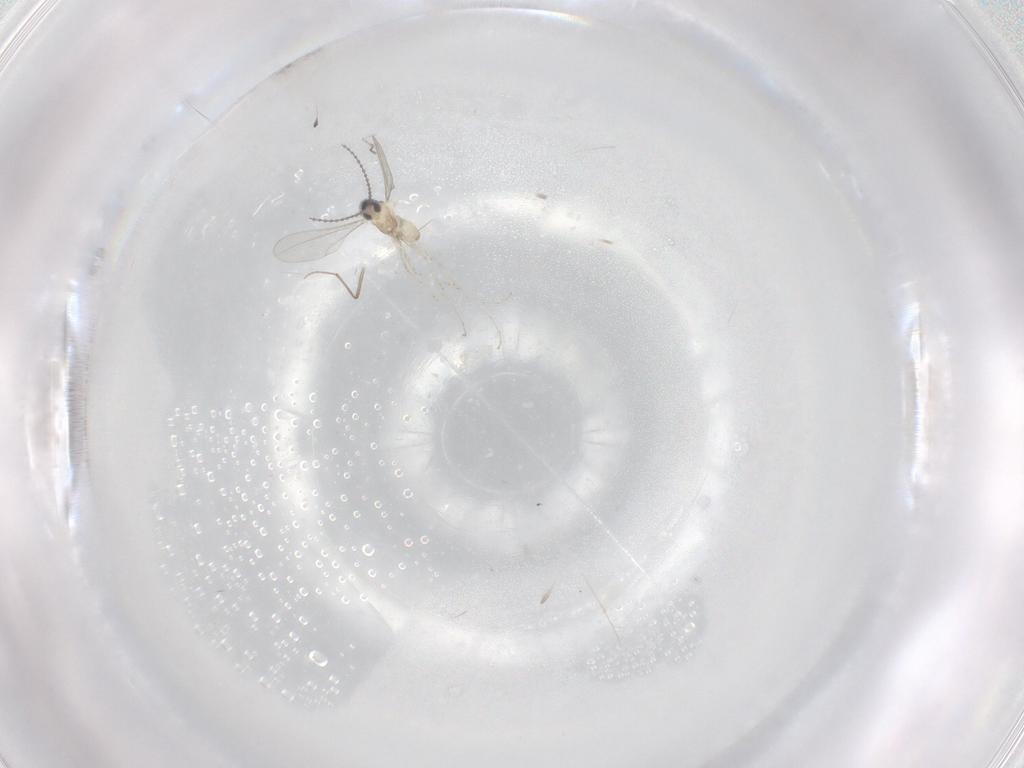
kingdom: Animalia
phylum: Arthropoda
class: Insecta
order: Diptera
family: Cecidomyiidae
